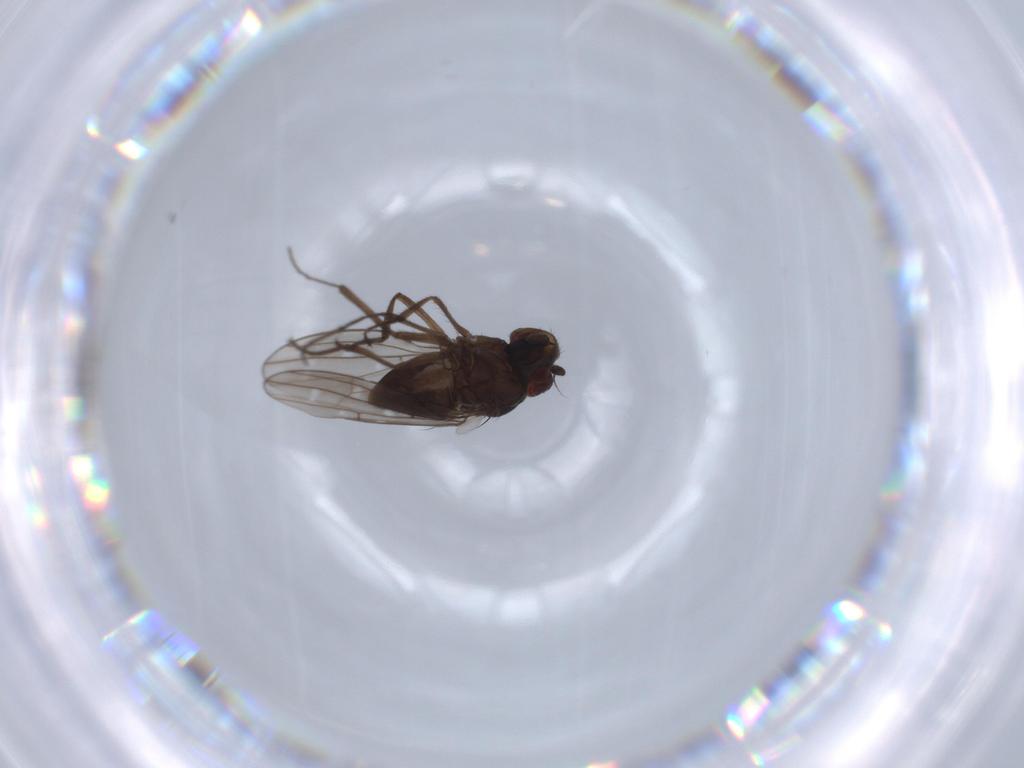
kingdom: Animalia
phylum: Arthropoda
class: Insecta
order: Diptera
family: Ephydridae
